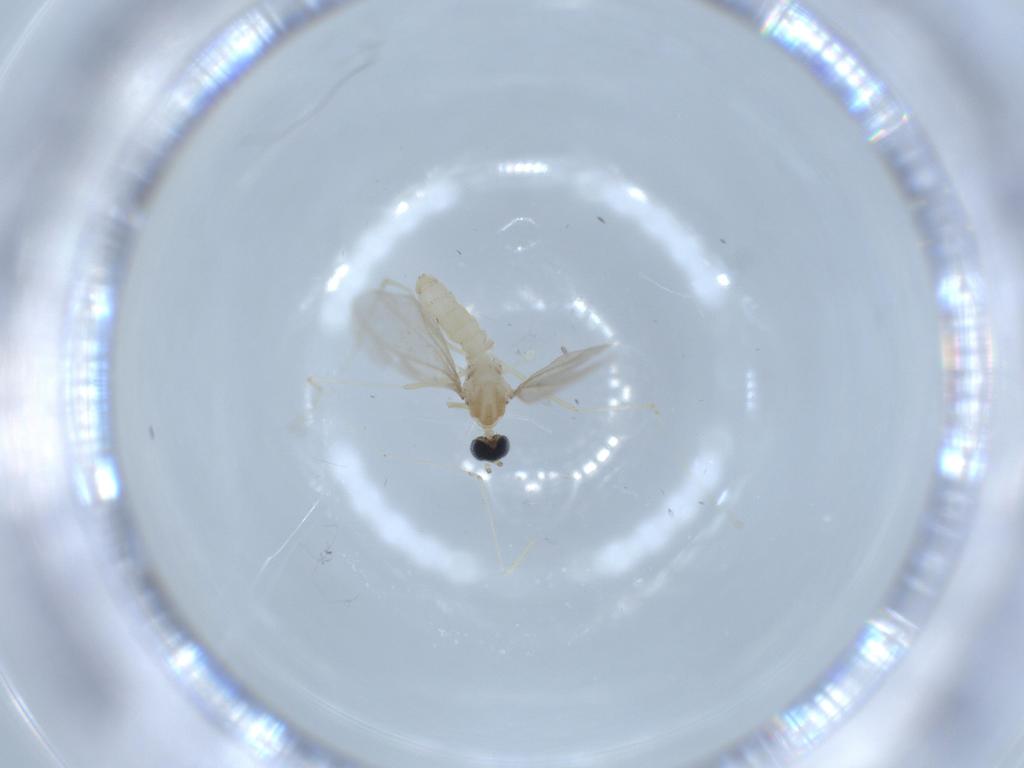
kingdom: Animalia
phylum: Arthropoda
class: Insecta
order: Diptera
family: Cecidomyiidae
